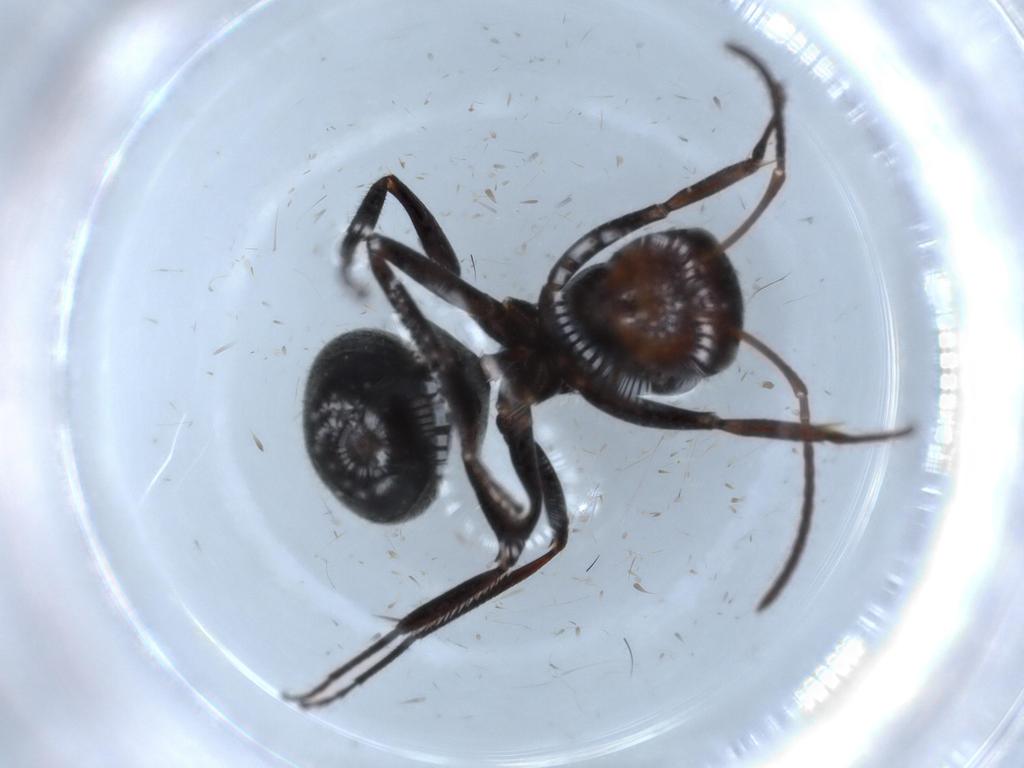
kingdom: Animalia
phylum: Arthropoda
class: Insecta
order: Hymenoptera
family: Formicidae
